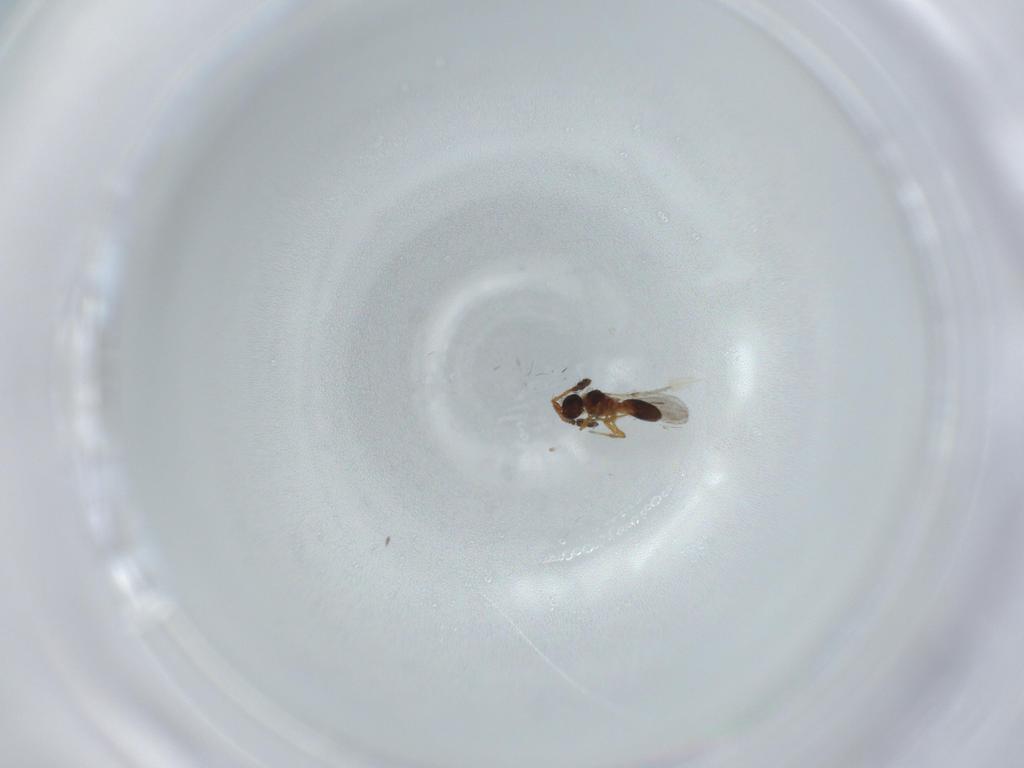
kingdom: Animalia
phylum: Arthropoda
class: Insecta
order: Hymenoptera
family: Diapriidae
